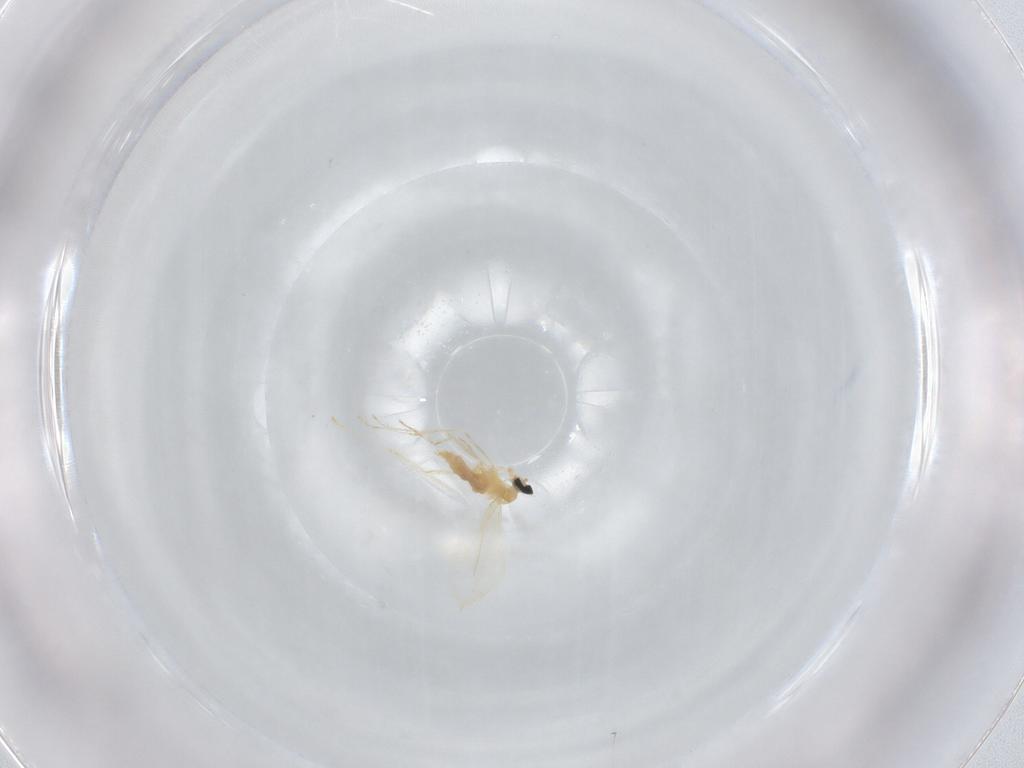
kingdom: Animalia
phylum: Arthropoda
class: Insecta
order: Diptera
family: Cecidomyiidae
